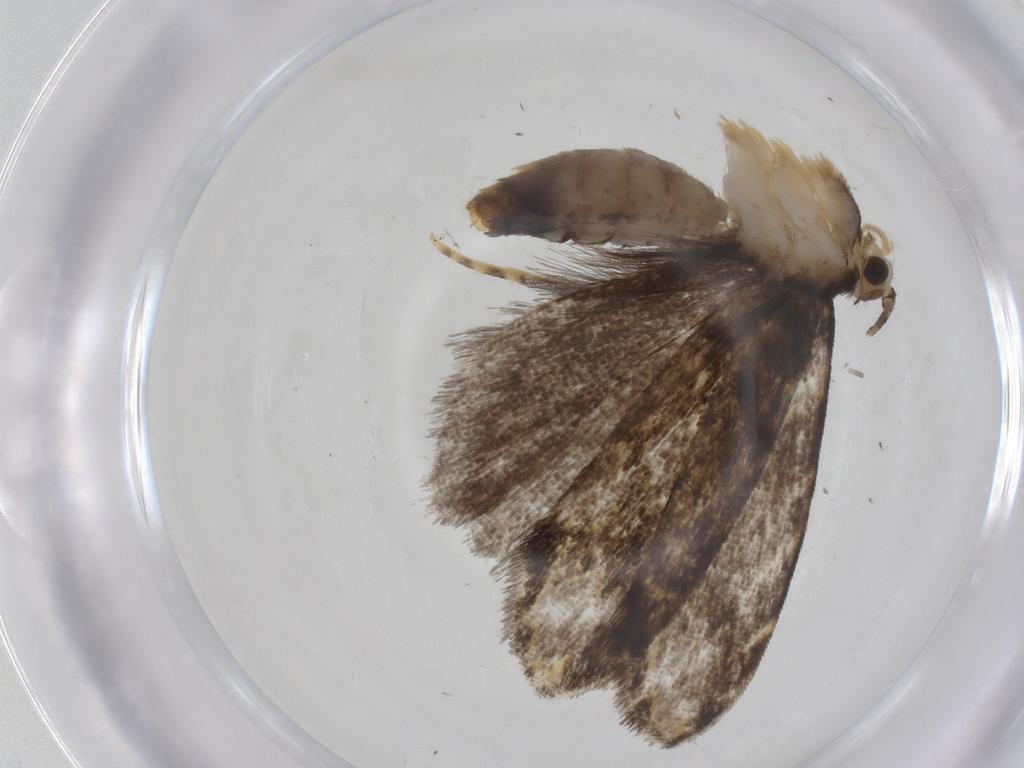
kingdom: Animalia
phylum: Arthropoda
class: Insecta
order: Lepidoptera
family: Tineidae
